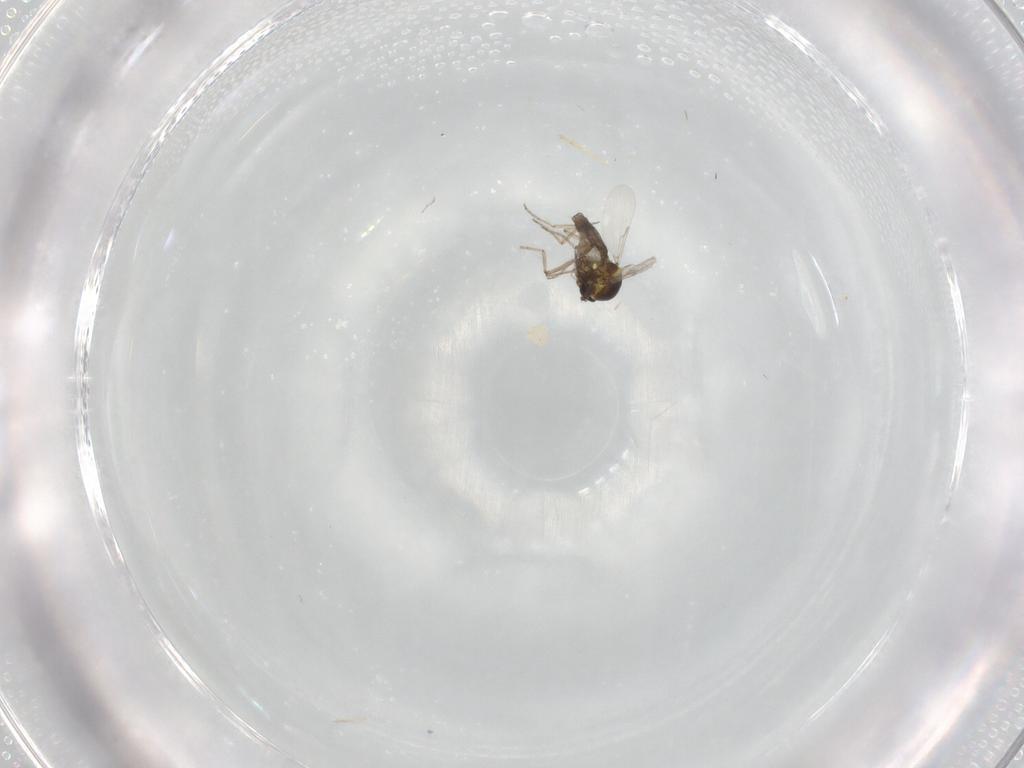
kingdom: Animalia
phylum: Arthropoda
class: Insecta
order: Diptera
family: Ceratopogonidae
